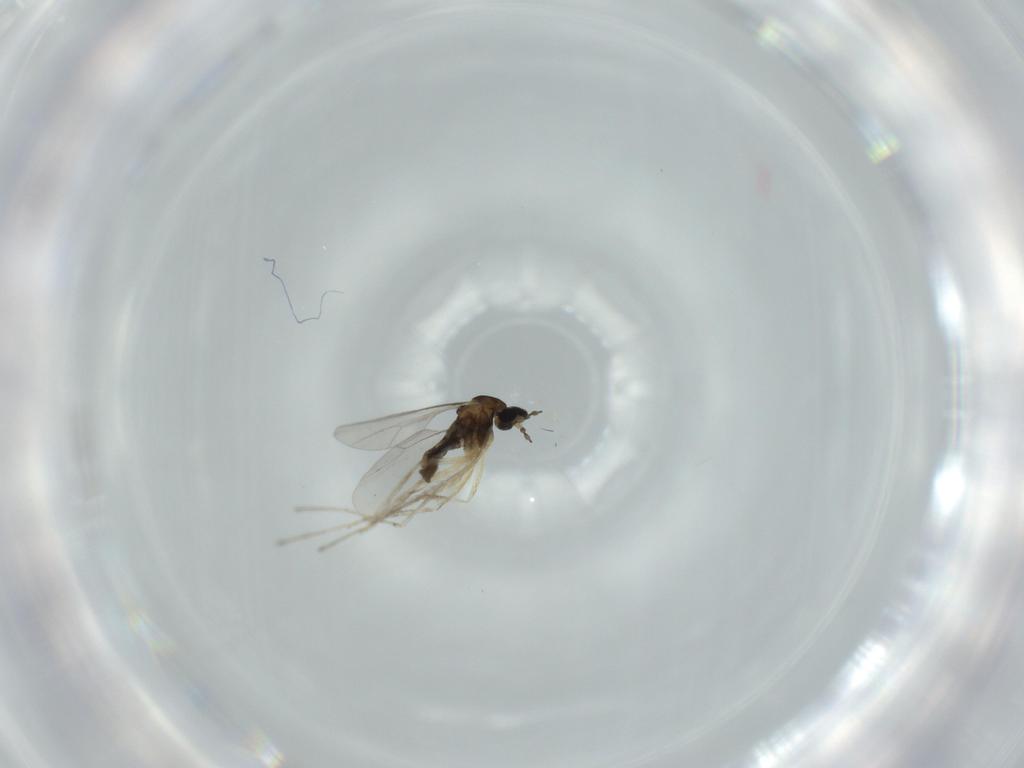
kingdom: Animalia
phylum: Arthropoda
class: Insecta
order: Diptera
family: Cecidomyiidae
